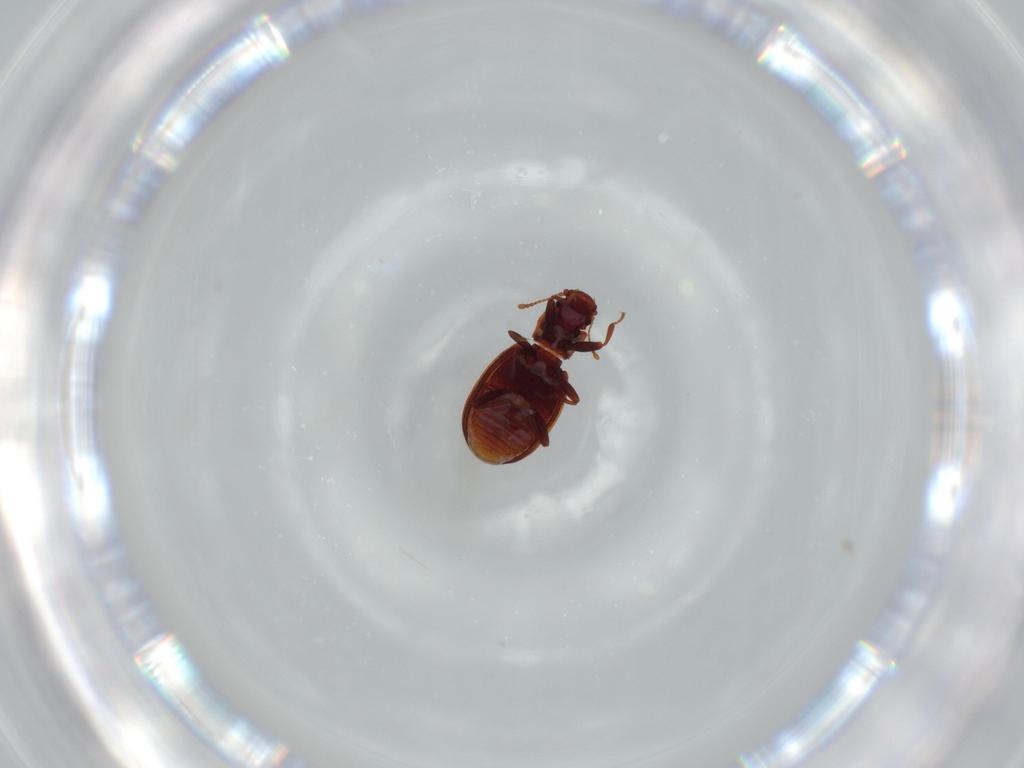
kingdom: Animalia
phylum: Arthropoda
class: Insecta
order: Coleoptera
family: Latridiidae
